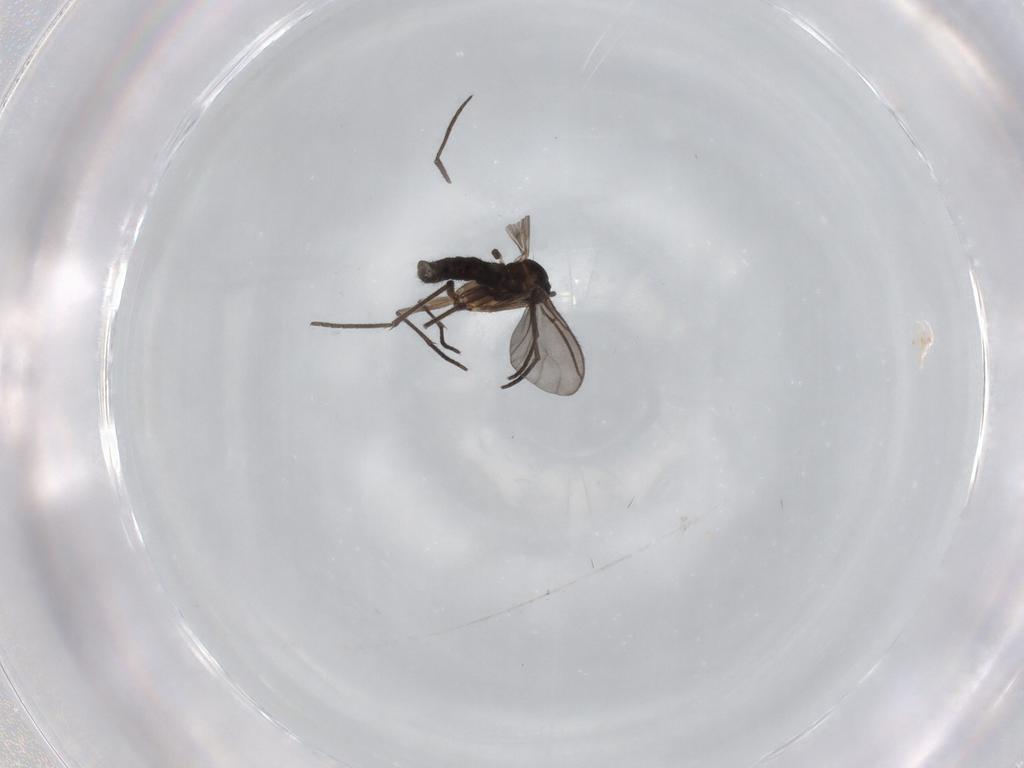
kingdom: Animalia
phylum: Arthropoda
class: Insecta
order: Diptera
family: Sciaridae
